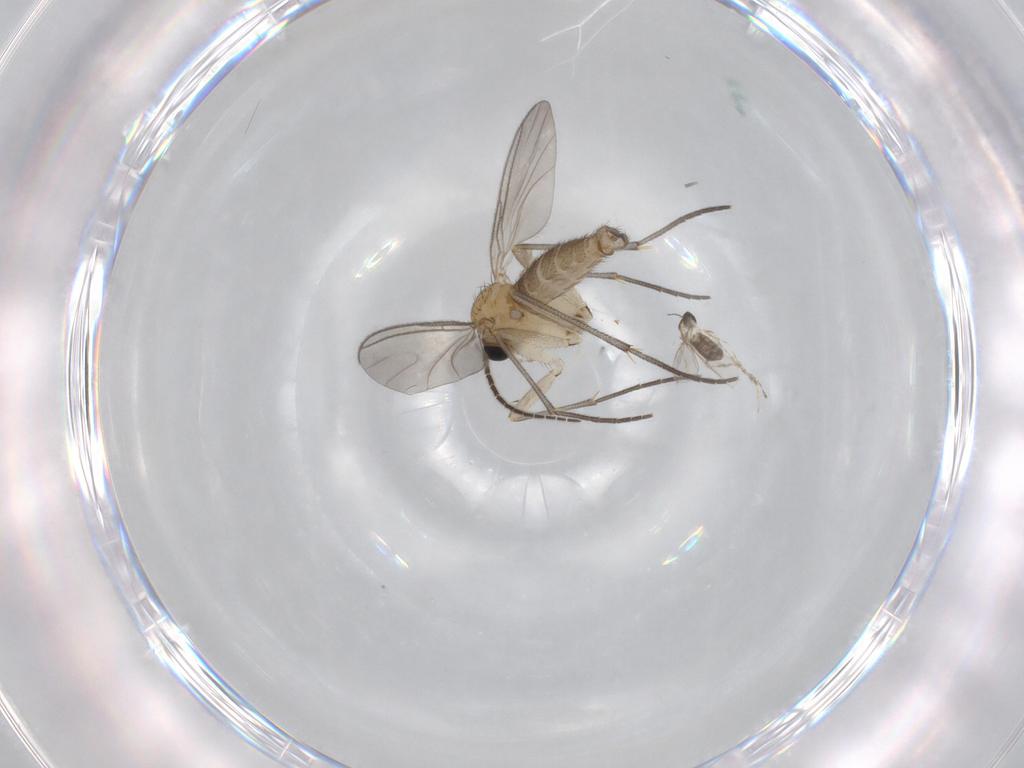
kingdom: Animalia
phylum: Arthropoda
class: Insecta
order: Diptera
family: Sciaridae
